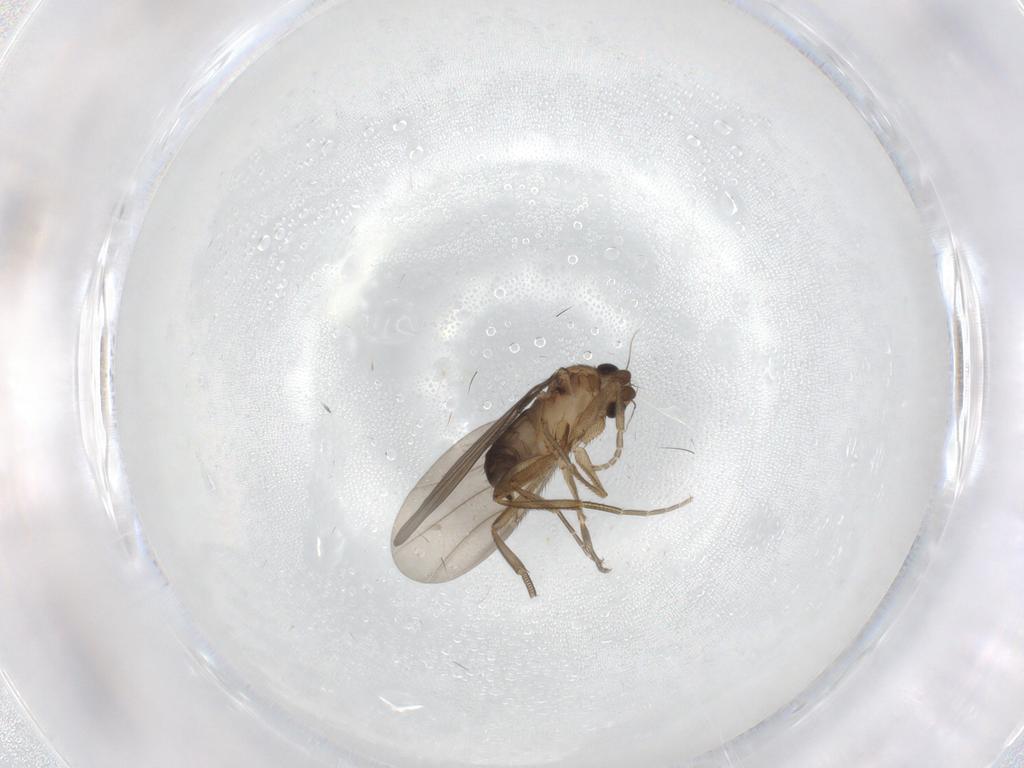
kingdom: Animalia
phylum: Arthropoda
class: Insecta
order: Diptera
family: Phoridae
